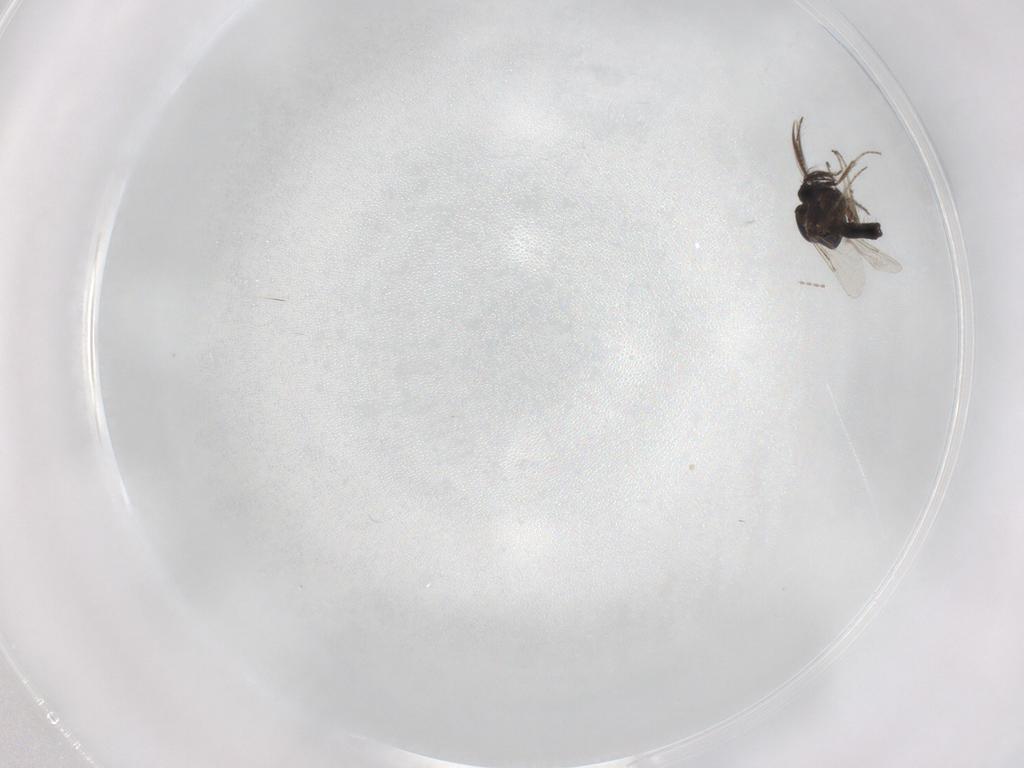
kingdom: Animalia
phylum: Arthropoda
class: Insecta
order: Diptera
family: Ceratopogonidae
